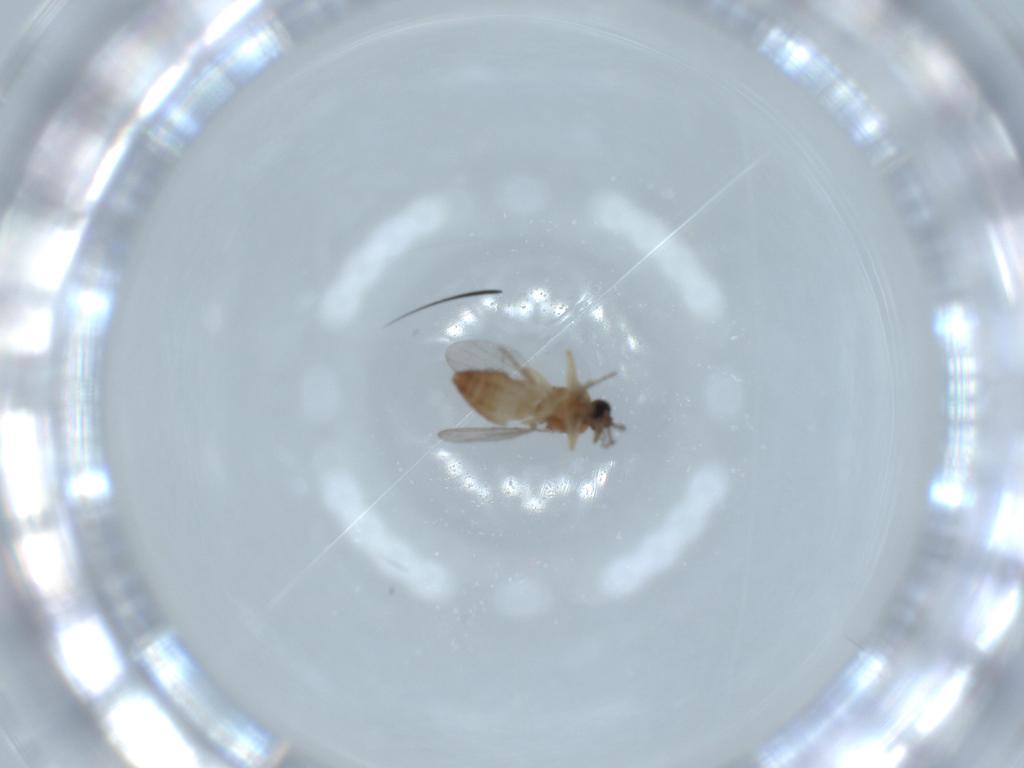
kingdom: Animalia
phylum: Arthropoda
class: Insecta
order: Diptera
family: Ceratopogonidae
